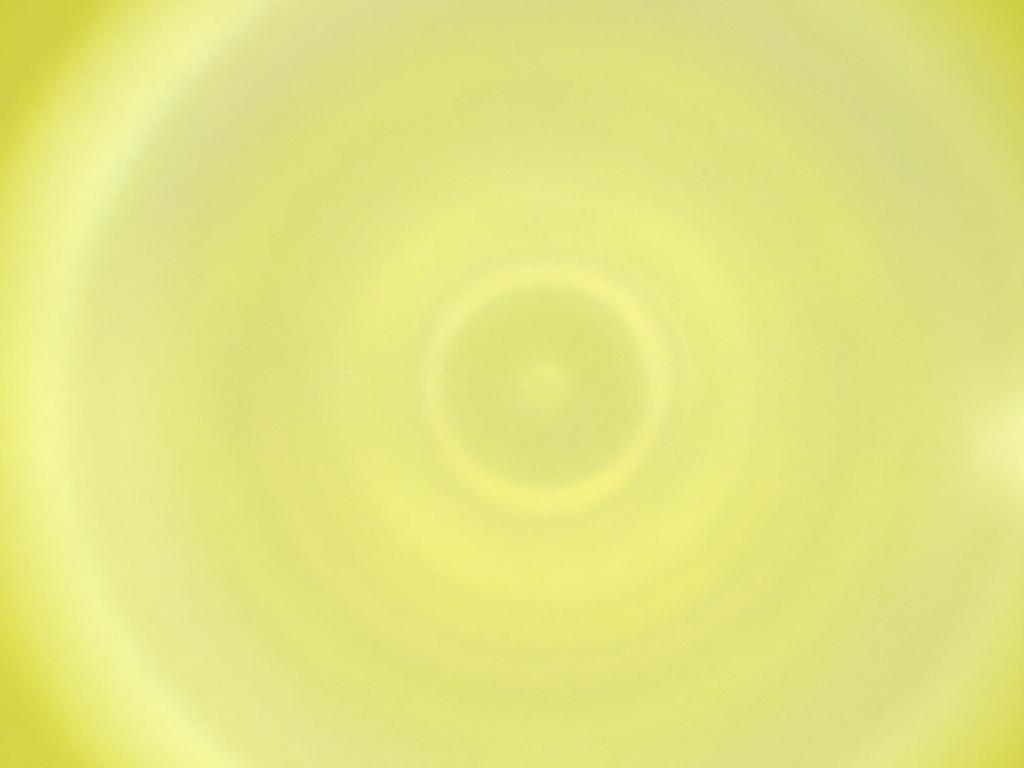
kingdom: Animalia
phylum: Arthropoda
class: Insecta
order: Diptera
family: Cecidomyiidae
